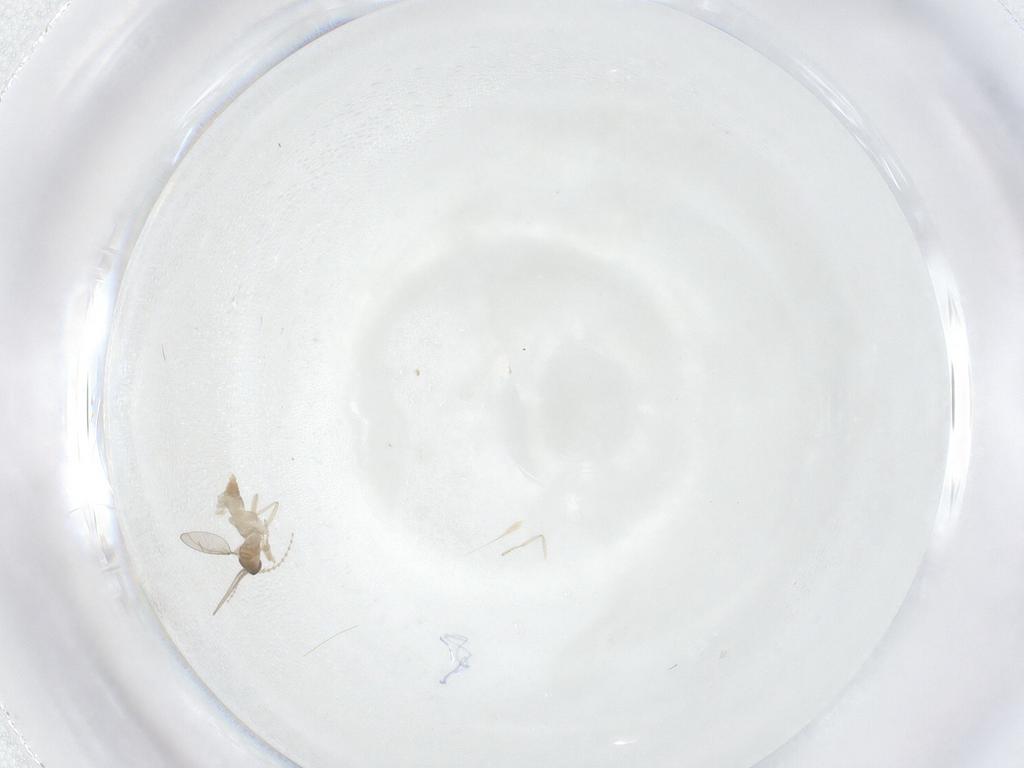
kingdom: Animalia
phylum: Arthropoda
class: Insecta
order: Diptera
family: Cecidomyiidae
